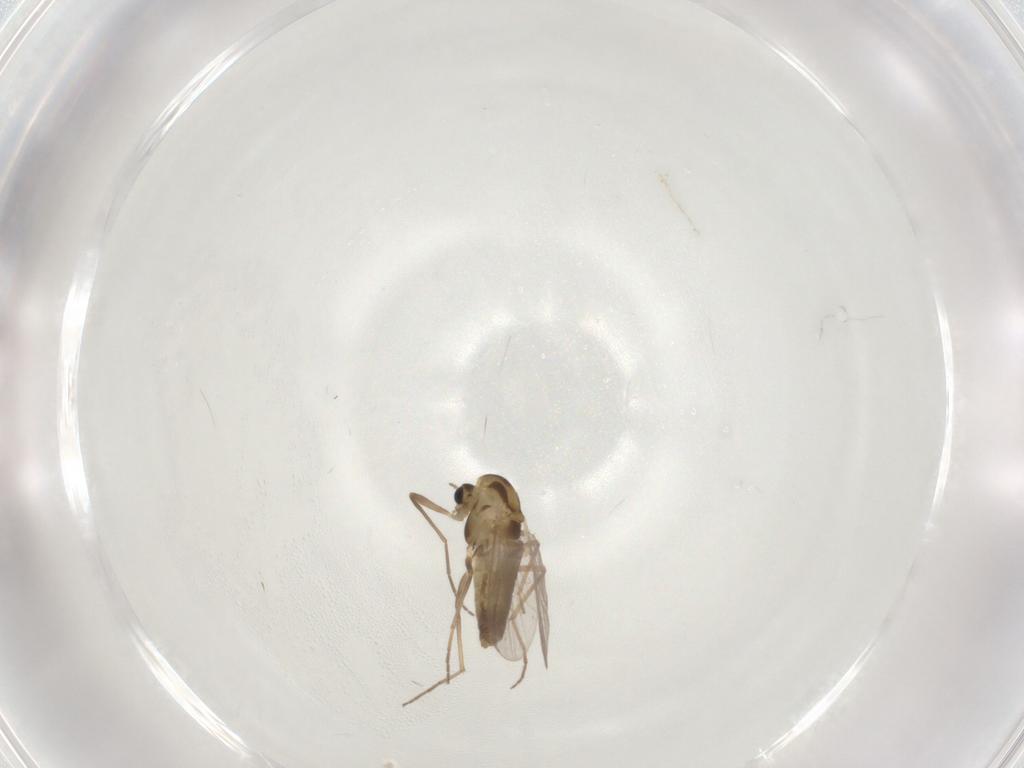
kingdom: Animalia
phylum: Arthropoda
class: Insecta
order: Diptera
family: Chironomidae
